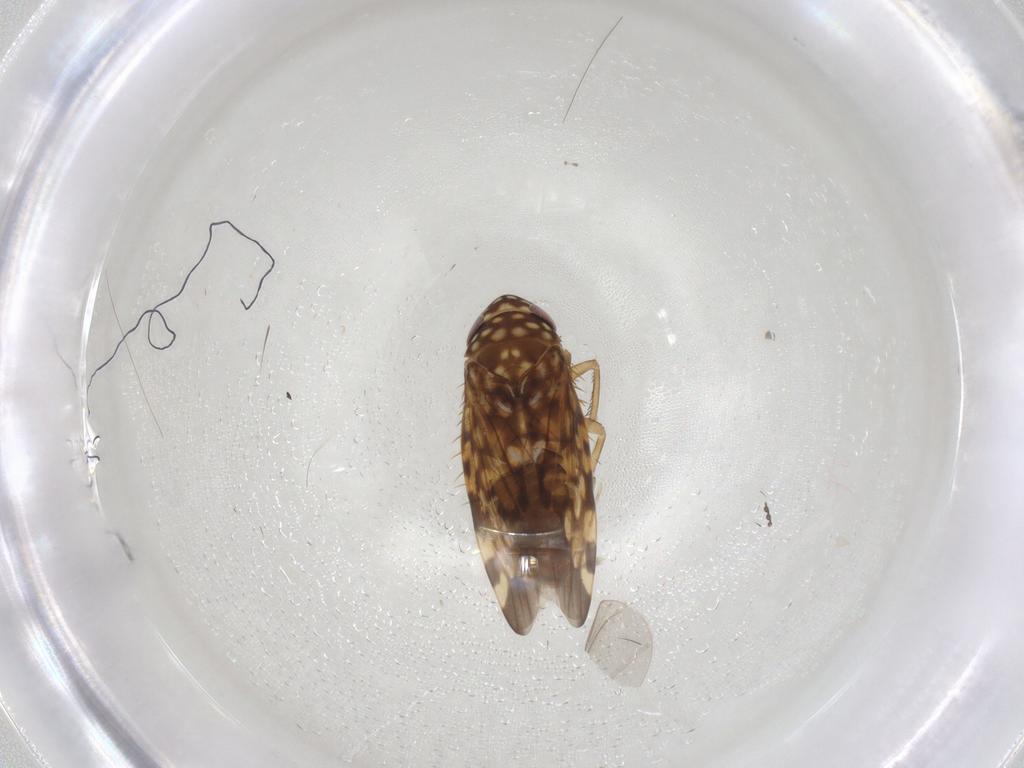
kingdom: Animalia
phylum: Arthropoda
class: Insecta
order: Hemiptera
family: Cicadellidae
